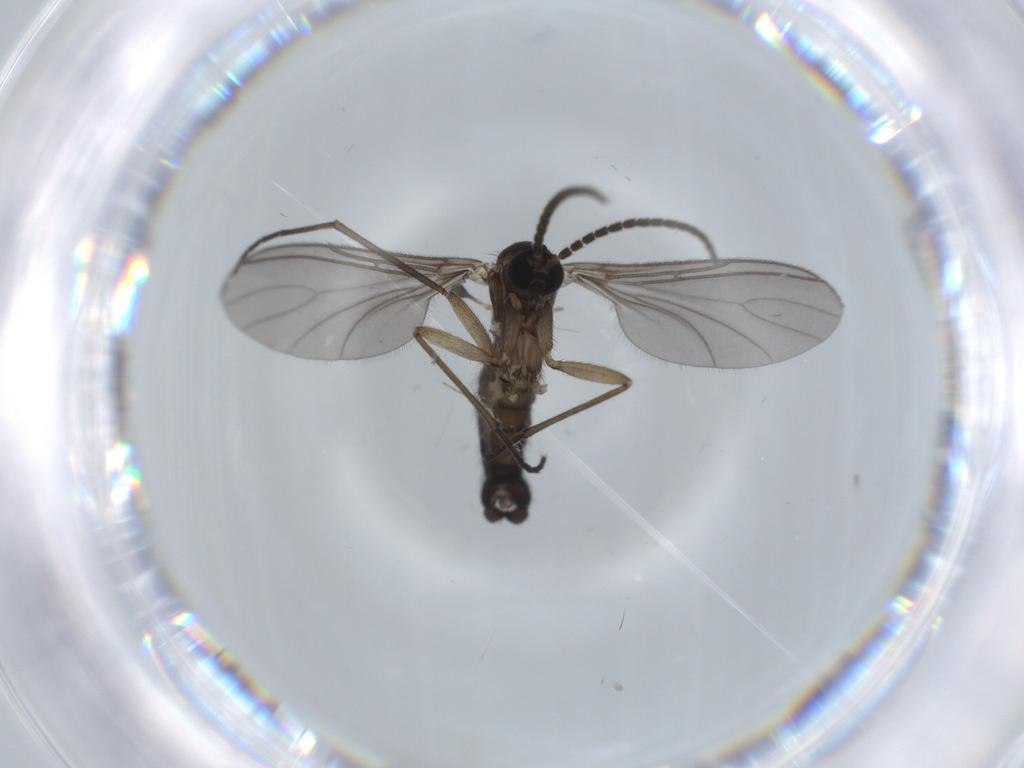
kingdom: Animalia
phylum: Arthropoda
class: Insecta
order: Diptera
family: Sciaridae
